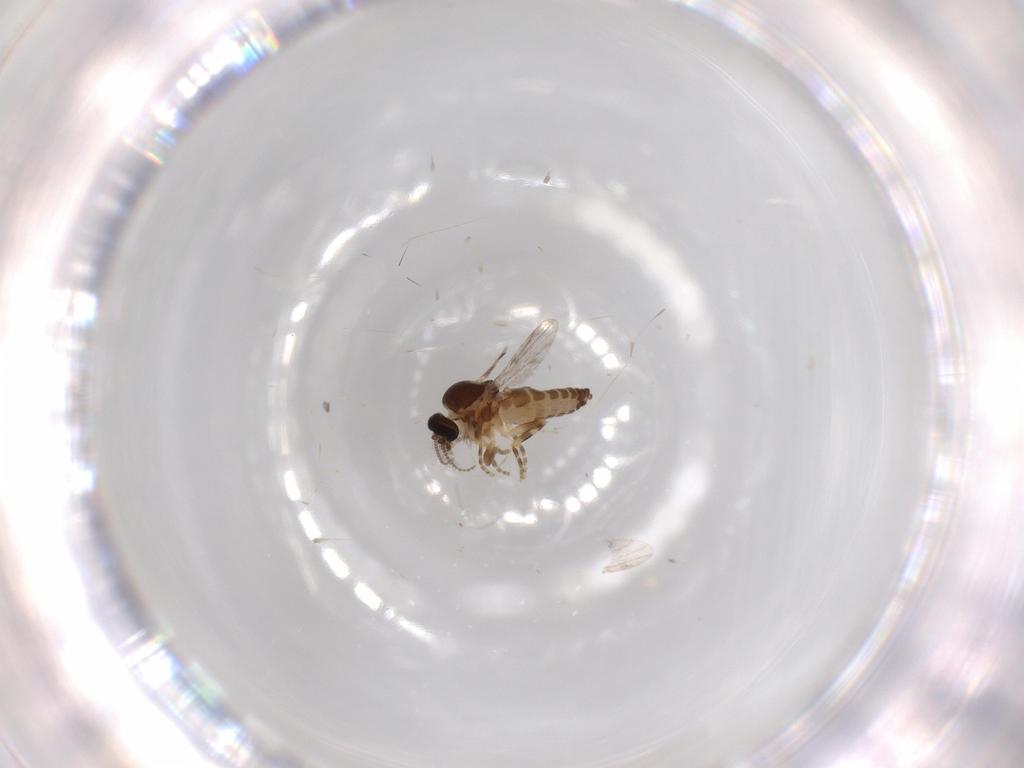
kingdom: Animalia
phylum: Arthropoda
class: Insecta
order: Diptera
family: Ceratopogonidae
